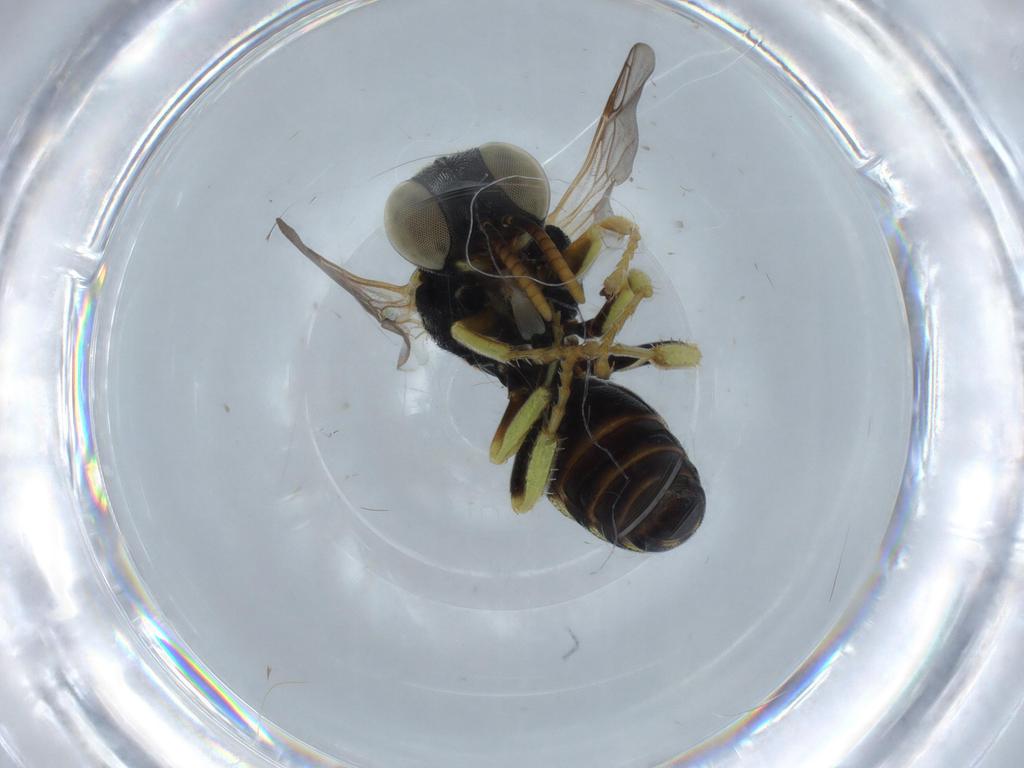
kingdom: Animalia
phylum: Arthropoda
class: Insecta
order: Hymenoptera
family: Crabronidae
